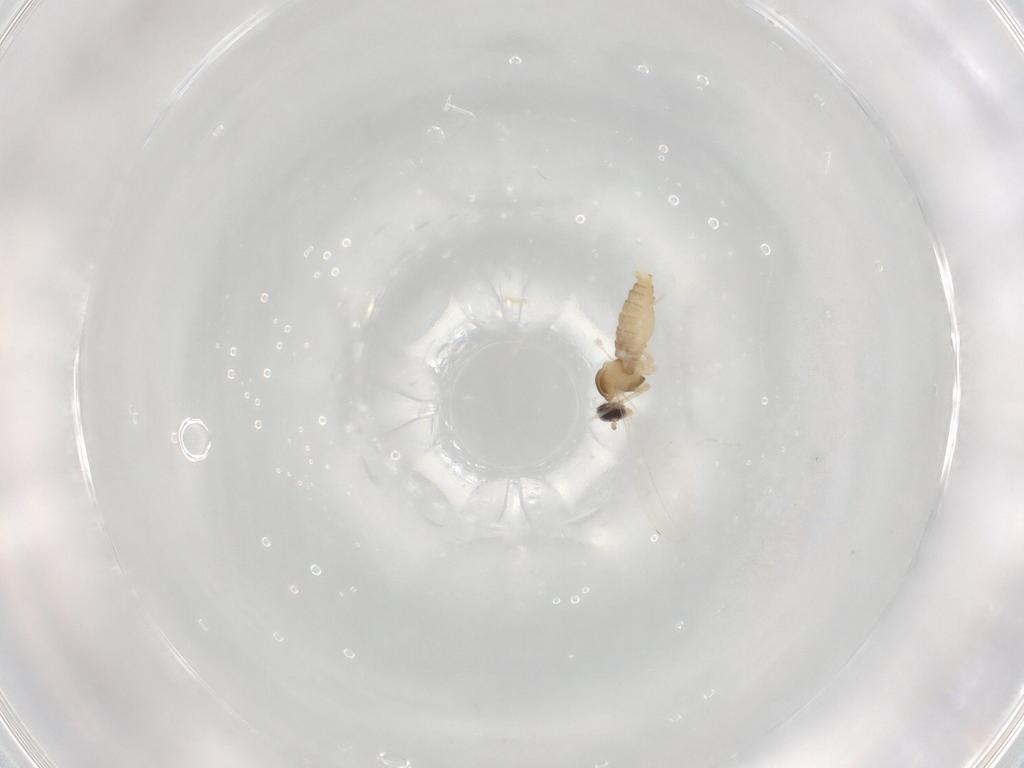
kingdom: Animalia
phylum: Arthropoda
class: Insecta
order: Diptera
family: Cecidomyiidae
